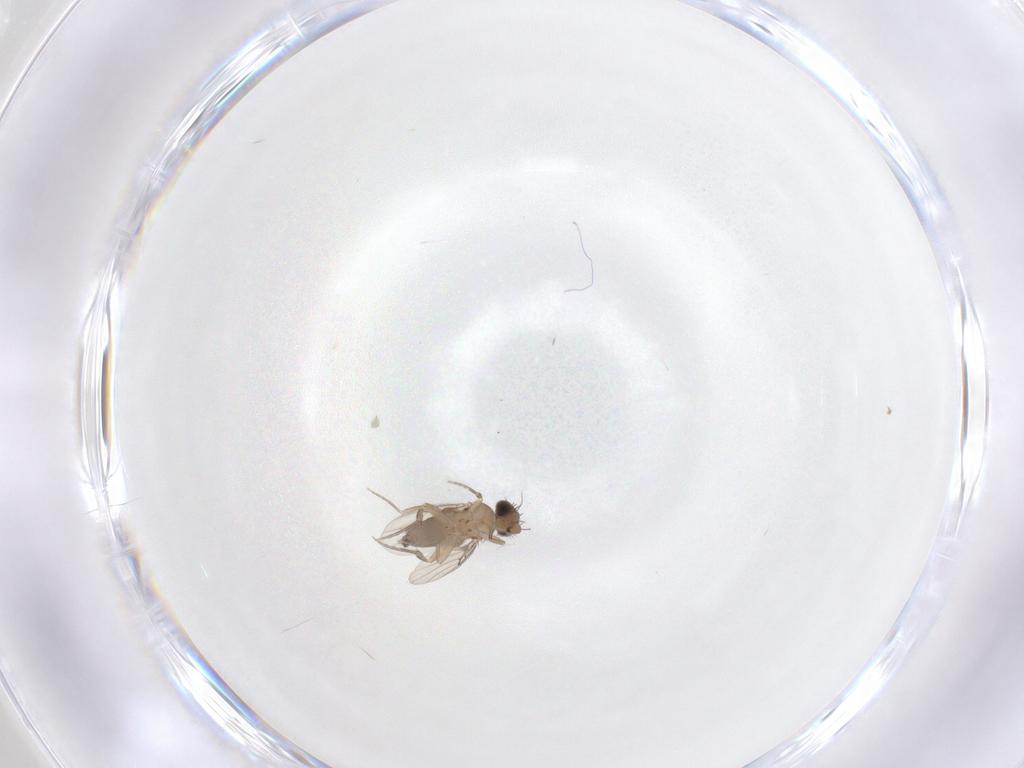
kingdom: Animalia
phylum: Arthropoda
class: Insecta
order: Diptera
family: Phoridae
